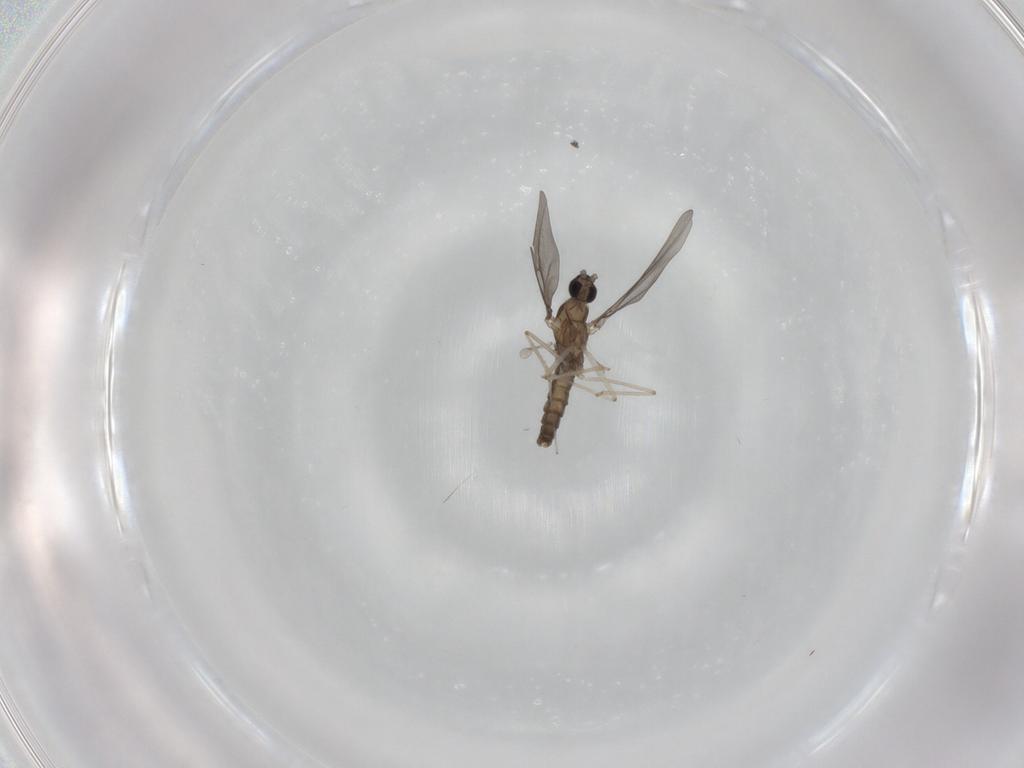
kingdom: Animalia
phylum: Arthropoda
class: Insecta
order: Diptera
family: Cecidomyiidae
